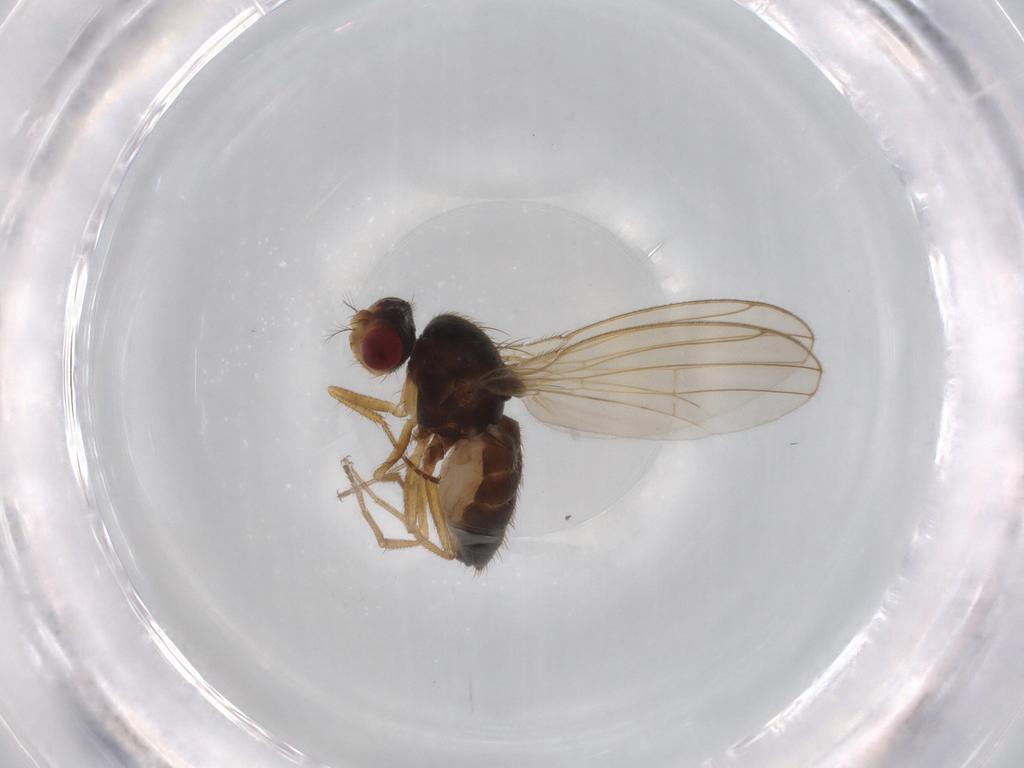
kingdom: Animalia
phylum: Arthropoda
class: Insecta
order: Diptera
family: Drosophilidae
